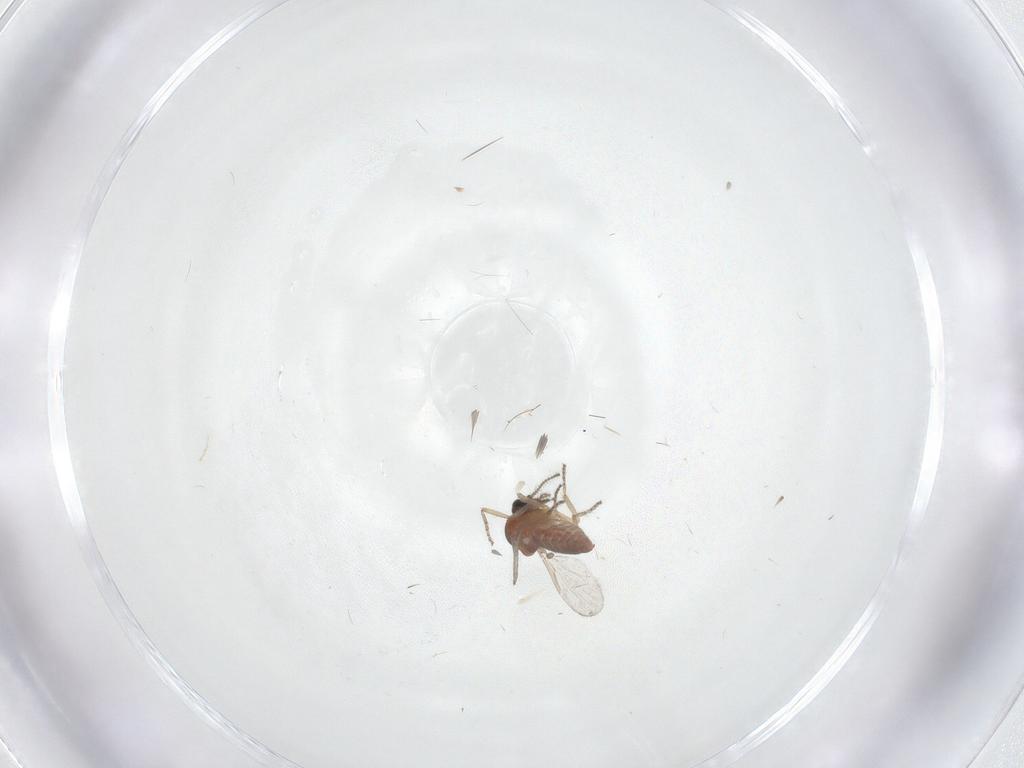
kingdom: Animalia
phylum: Arthropoda
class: Insecta
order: Diptera
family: Ceratopogonidae
